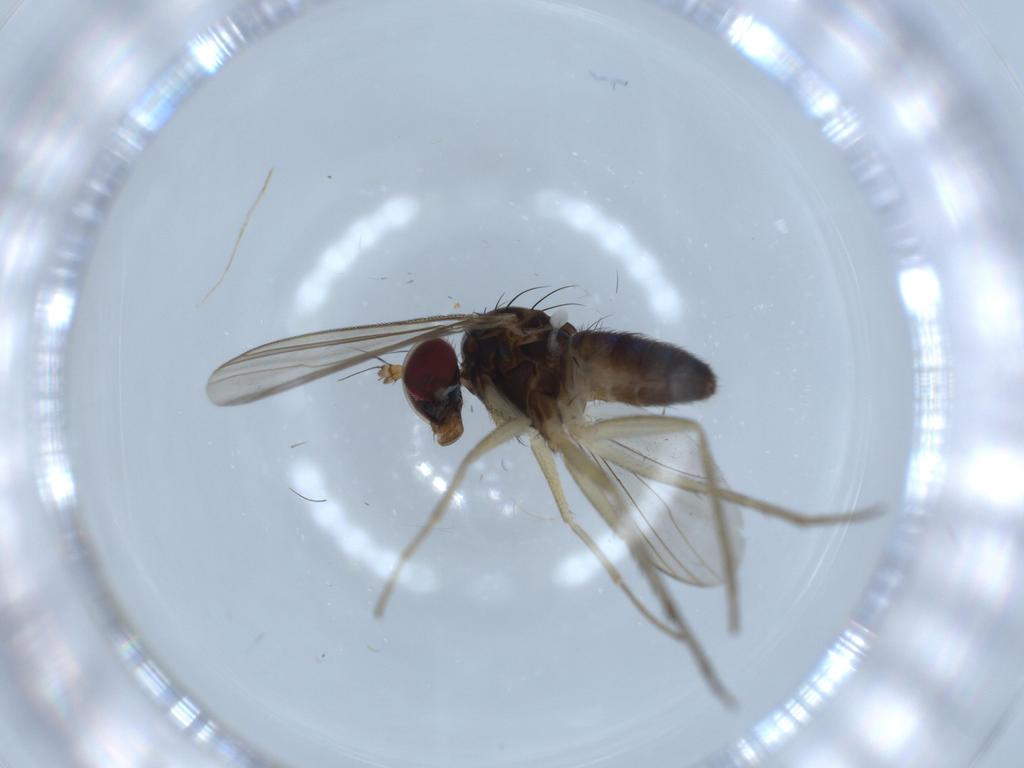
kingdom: Animalia
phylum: Arthropoda
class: Insecta
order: Diptera
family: Dolichopodidae
